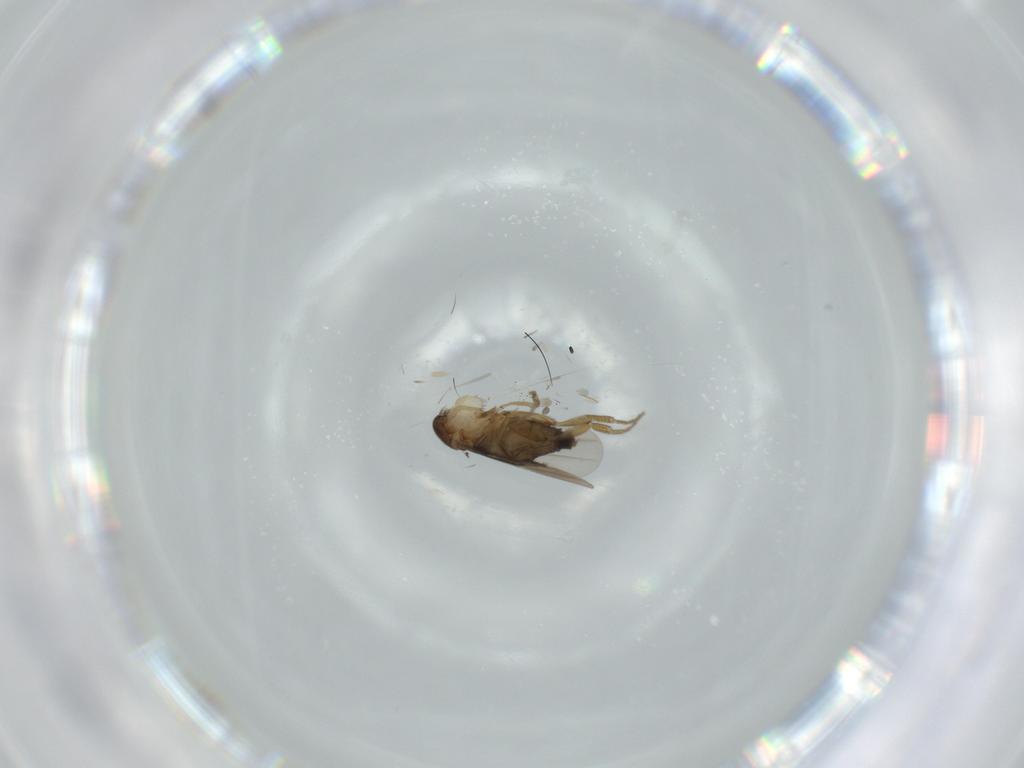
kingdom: Animalia
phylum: Arthropoda
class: Insecta
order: Diptera
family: Phoridae
